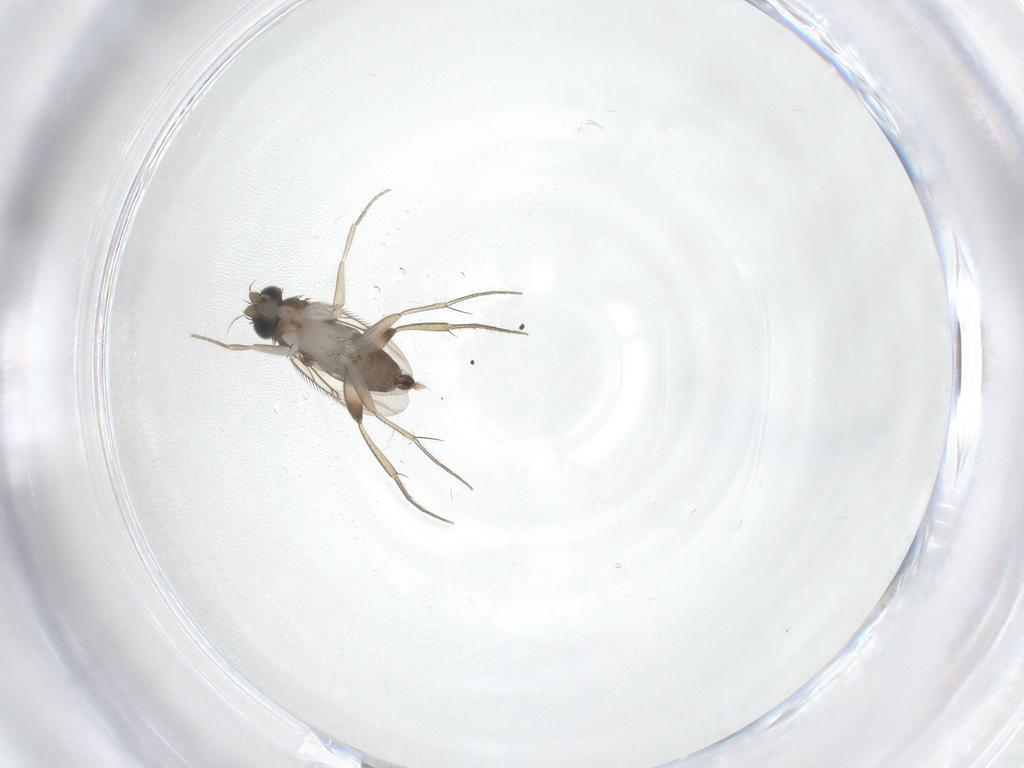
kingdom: Animalia
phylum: Arthropoda
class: Insecta
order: Diptera
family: Phoridae
